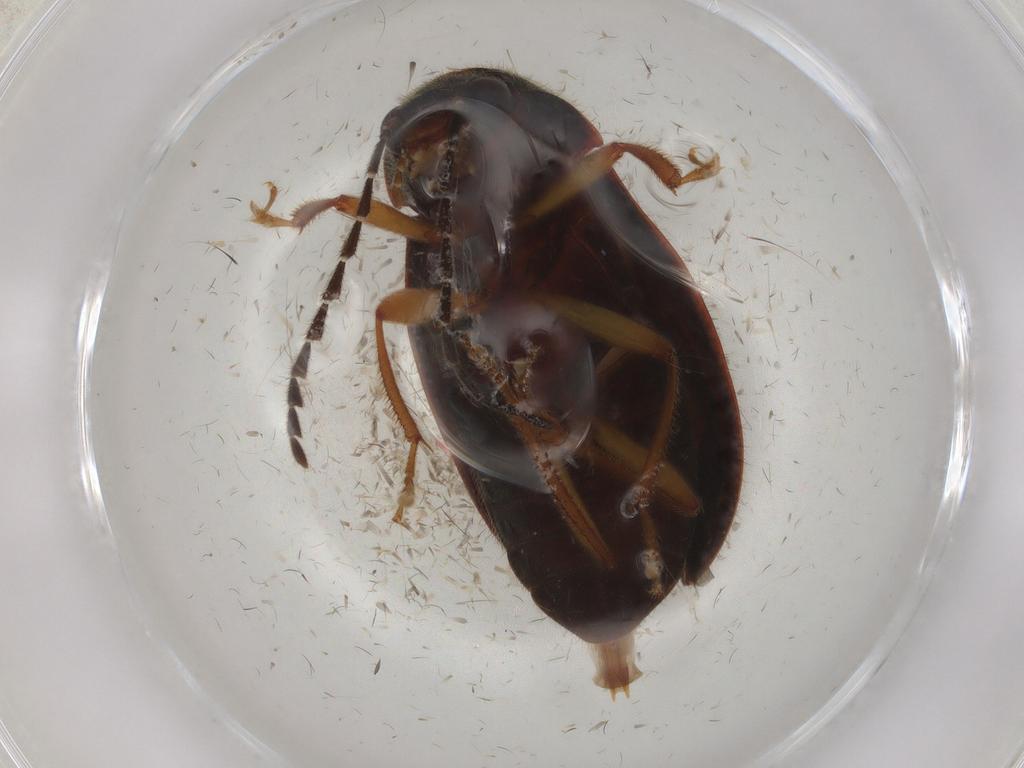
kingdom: Animalia
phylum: Arthropoda
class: Insecta
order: Coleoptera
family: Ptilodactylidae
